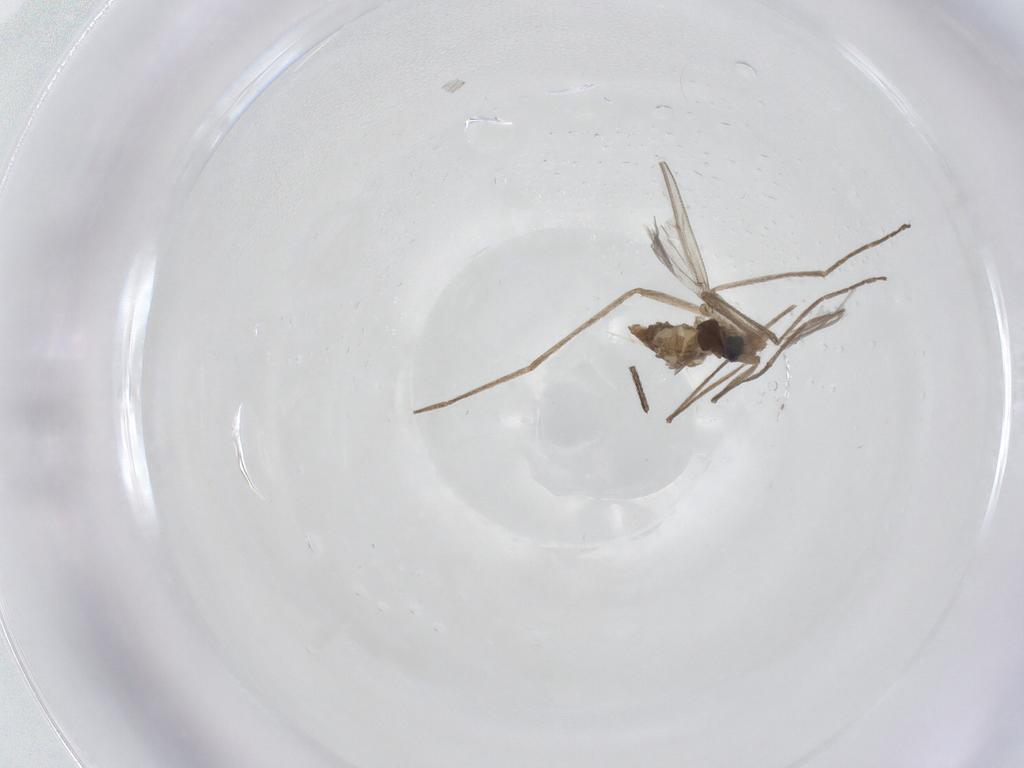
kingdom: Animalia
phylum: Arthropoda
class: Insecta
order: Diptera
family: Cecidomyiidae
